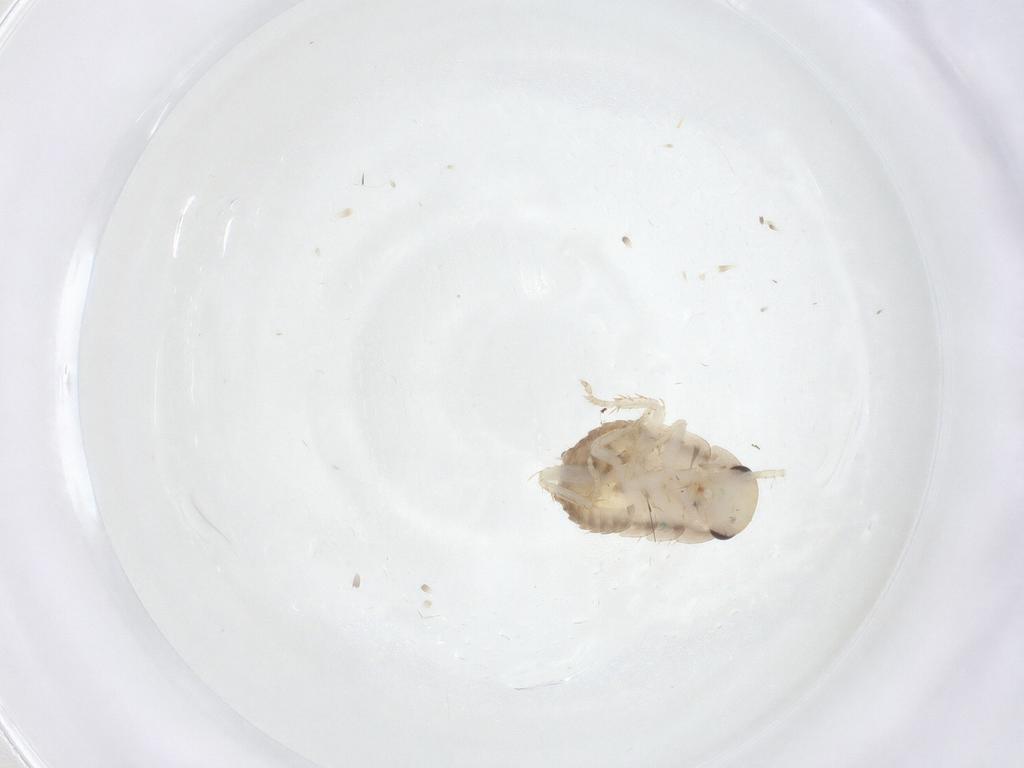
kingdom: Animalia
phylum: Arthropoda
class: Insecta
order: Blattodea
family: Ectobiidae
